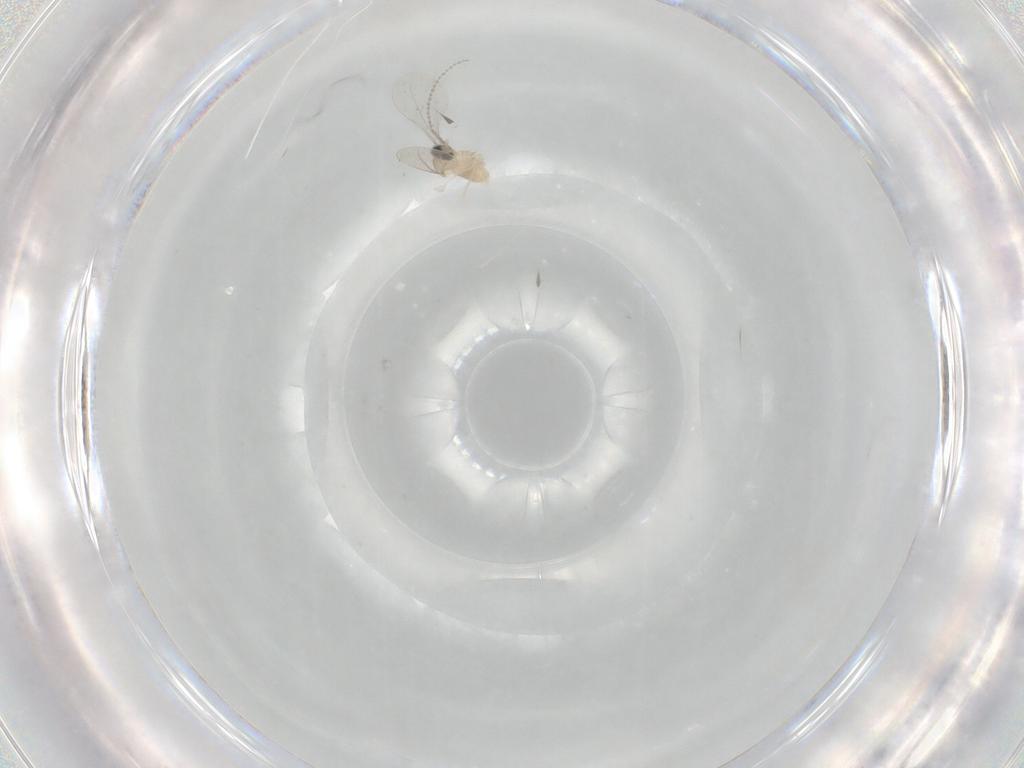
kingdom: Animalia
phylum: Arthropoda
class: Insecta
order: Diptera
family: Cecidomyiidae
